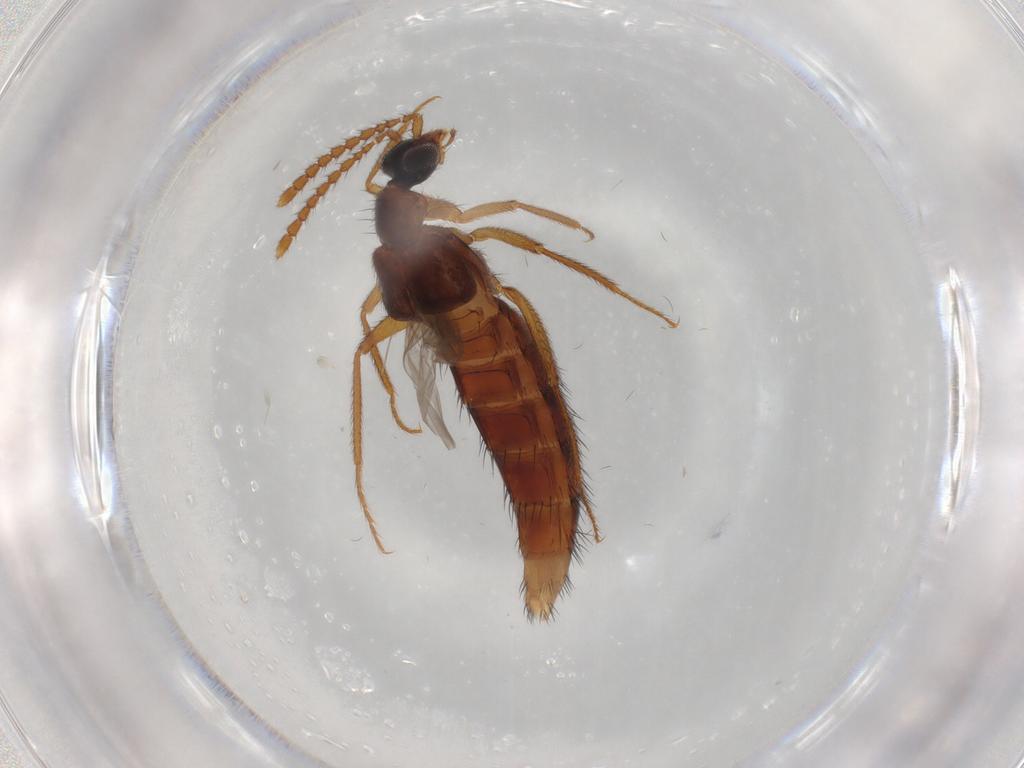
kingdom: Animalia
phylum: Arthropoda
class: Insecta
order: Coleoptera
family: Staphylinidae
